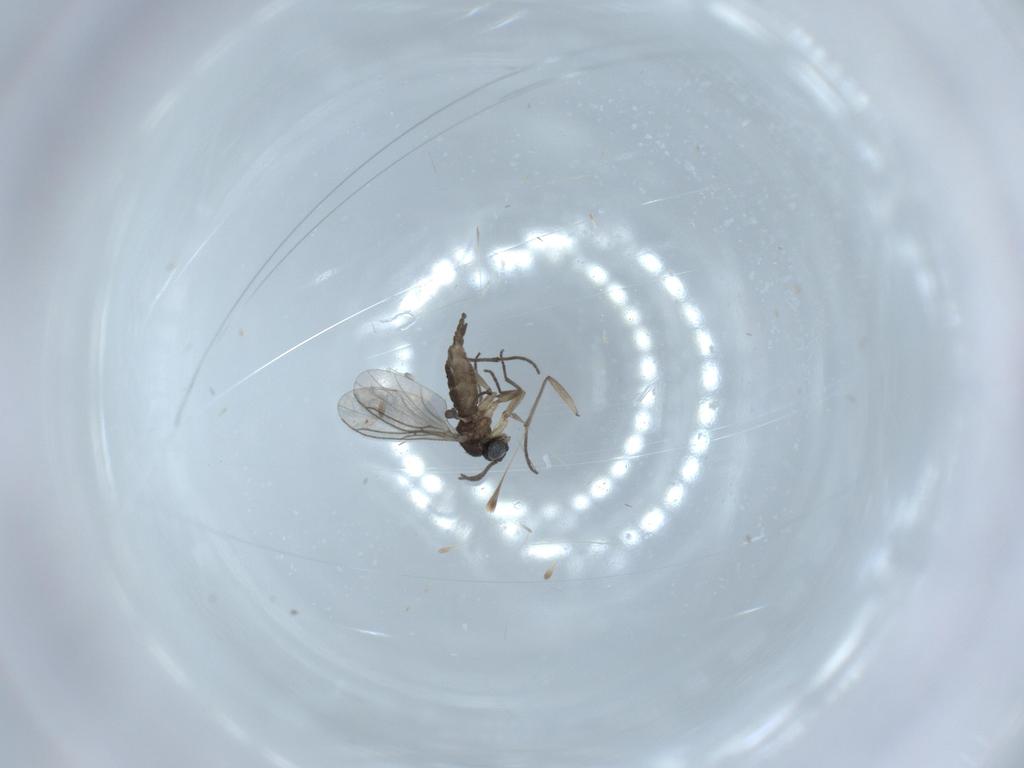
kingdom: Animalia
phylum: Arthropoda
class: Insecta
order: Diptera
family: Sciaridae
